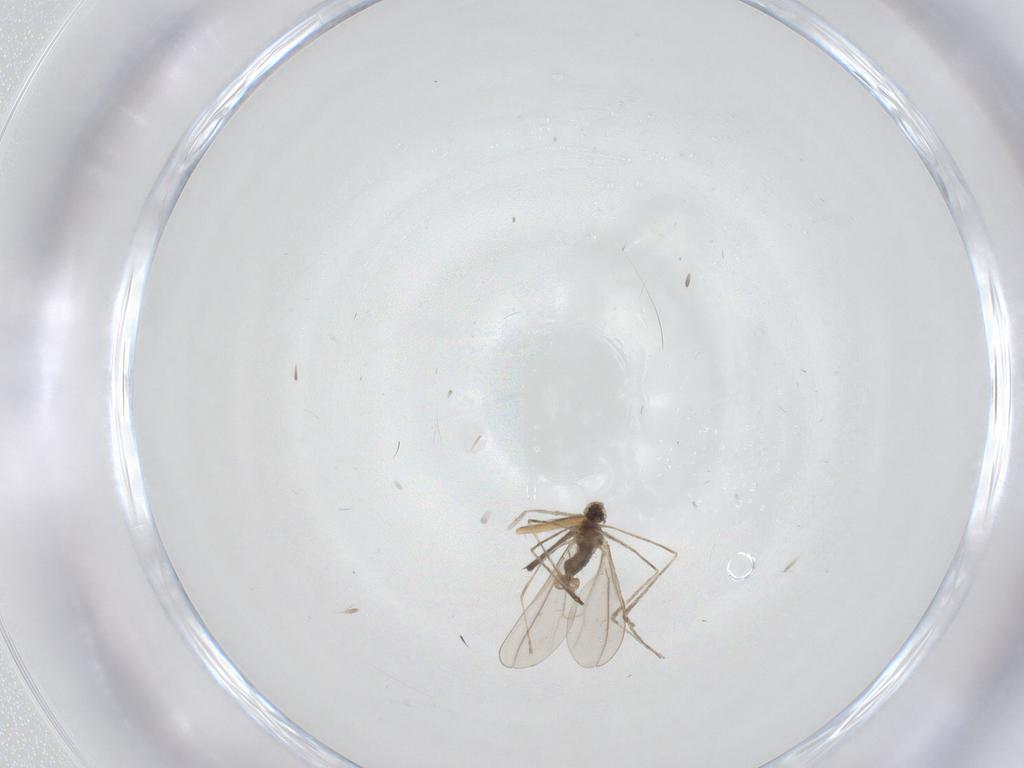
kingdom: Animalia
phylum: Arthropoda
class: Insecta
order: Diptera
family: Chironomidae
